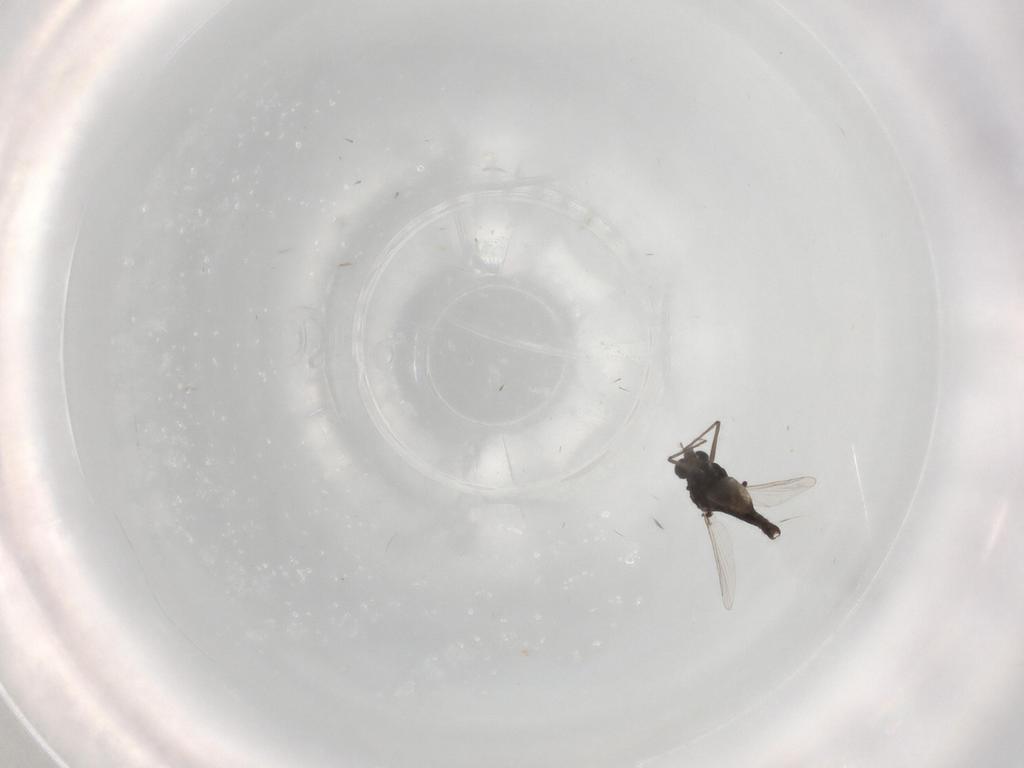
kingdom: Animalia
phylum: Arthropoda
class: Insecta
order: Diptera
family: Chironomidae
